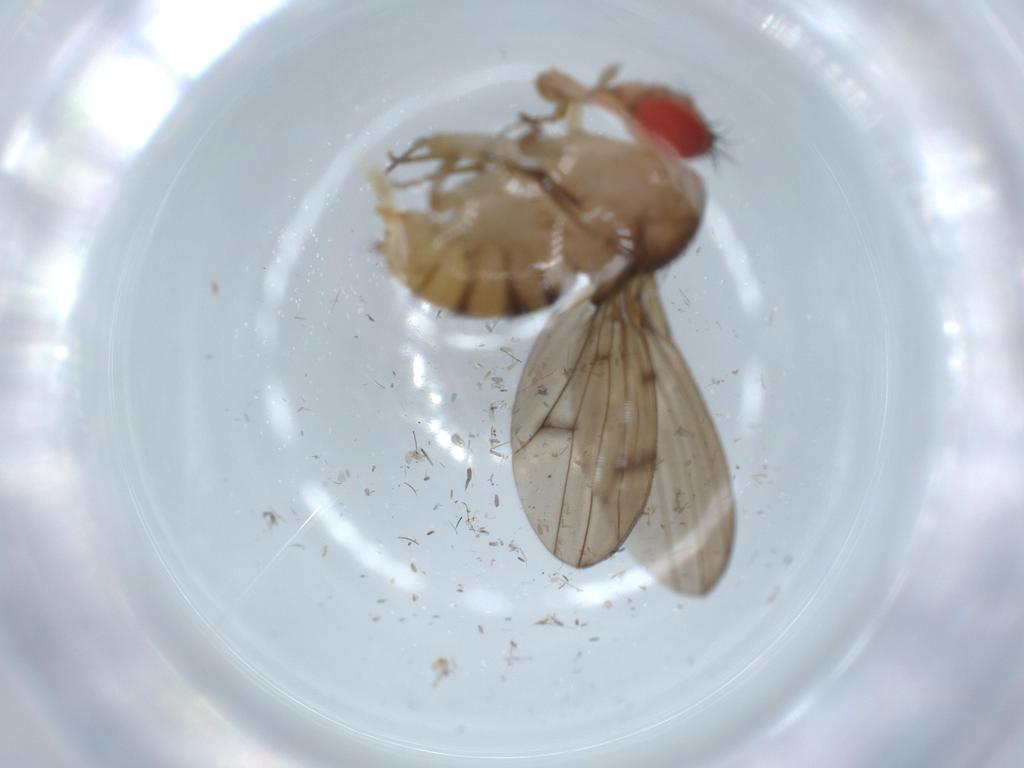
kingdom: Animalia
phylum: Arthropoda
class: Insecta
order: Diptera
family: Drosophilidae
